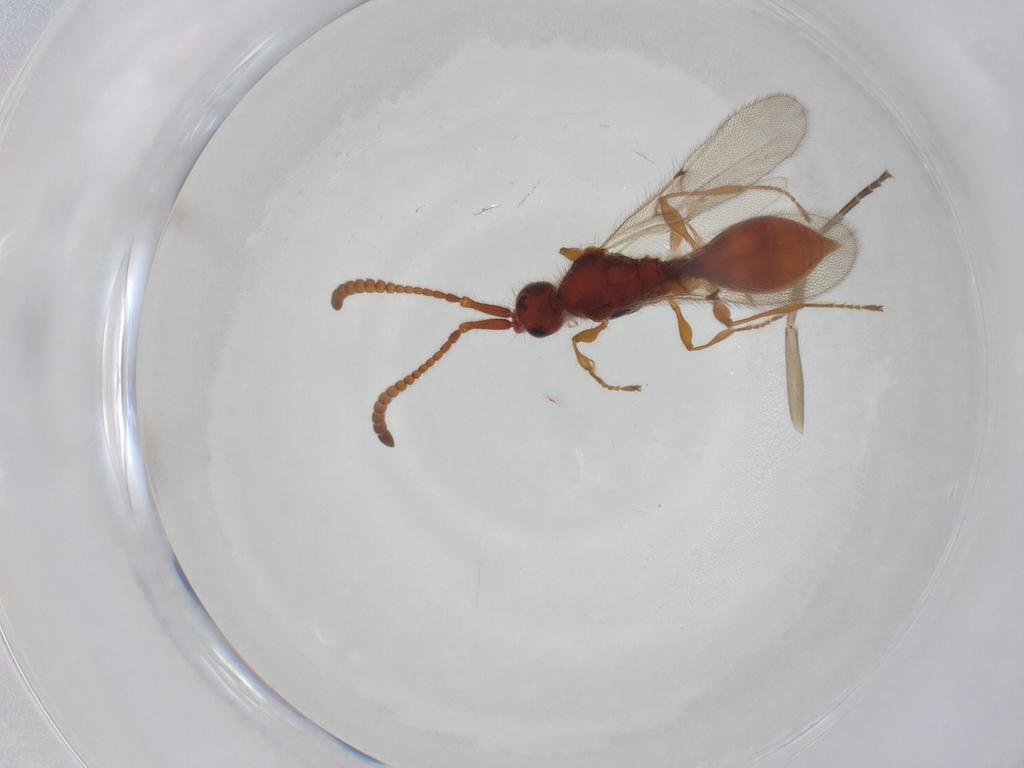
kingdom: Animalia
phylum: Arthropoda
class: Insecta
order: Hymenoptera
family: Diapriidae
